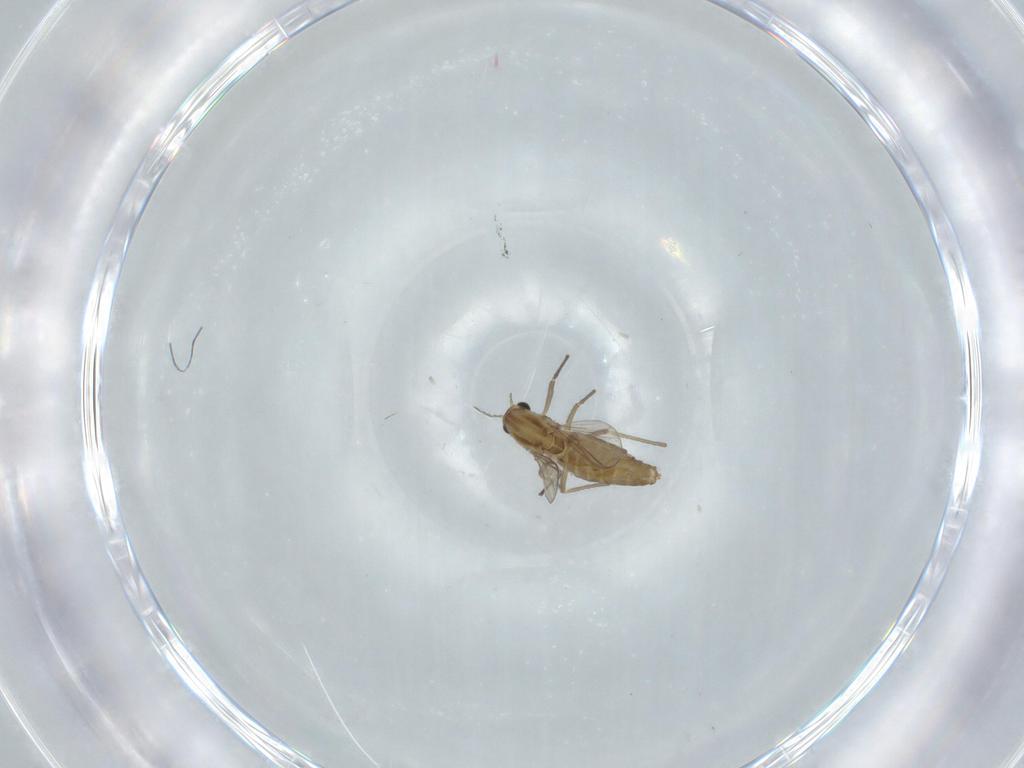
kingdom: Animalia
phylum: Arthropoda
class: Insecta
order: Diptera
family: Chironomidae
